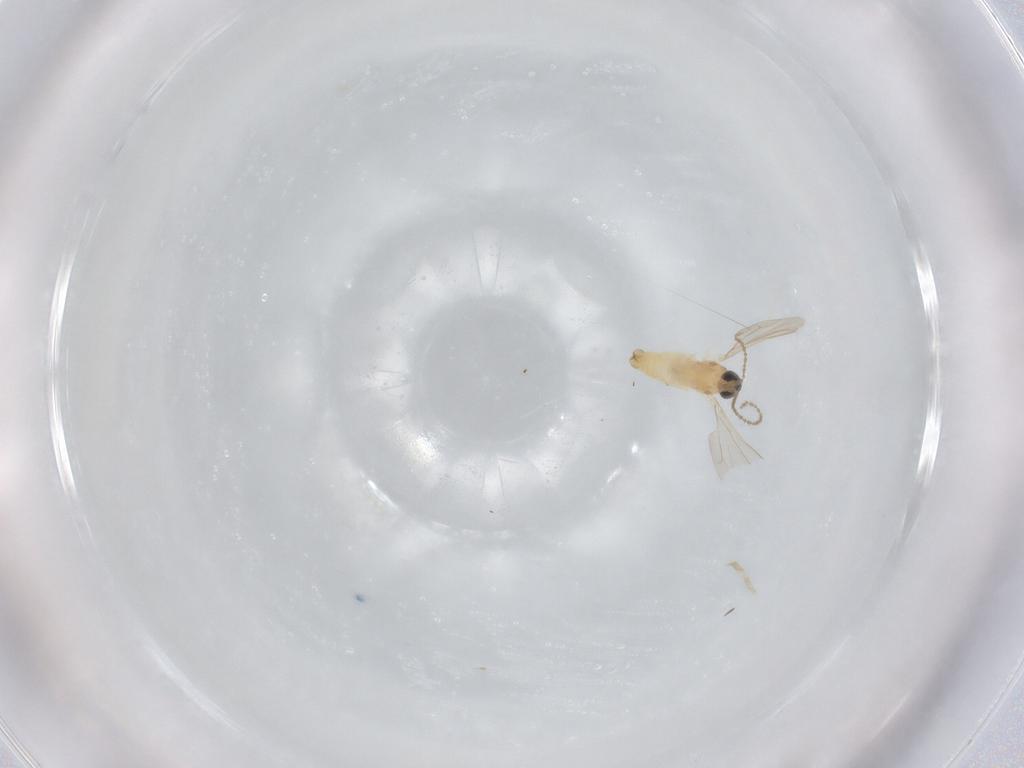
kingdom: Animalia
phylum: Arthropoda
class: Insecta
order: Diptera
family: Cecidomyiidae
